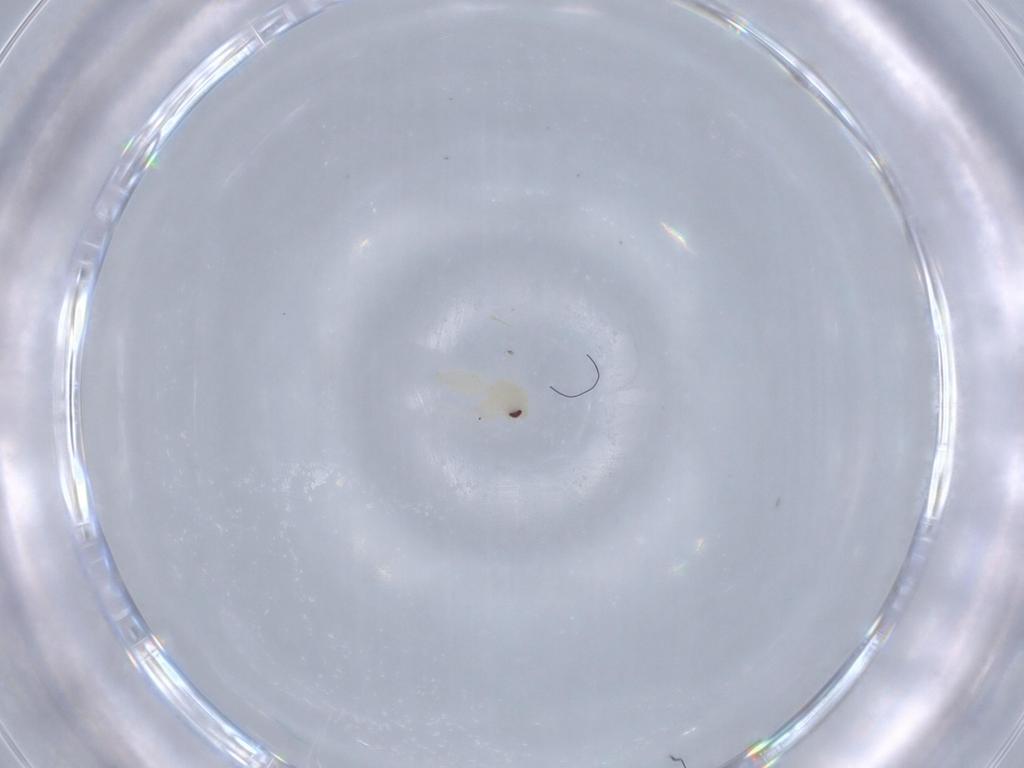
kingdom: Animalia
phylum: Arthropoda
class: Insecta
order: Hemiptera
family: Aleyrodidae
